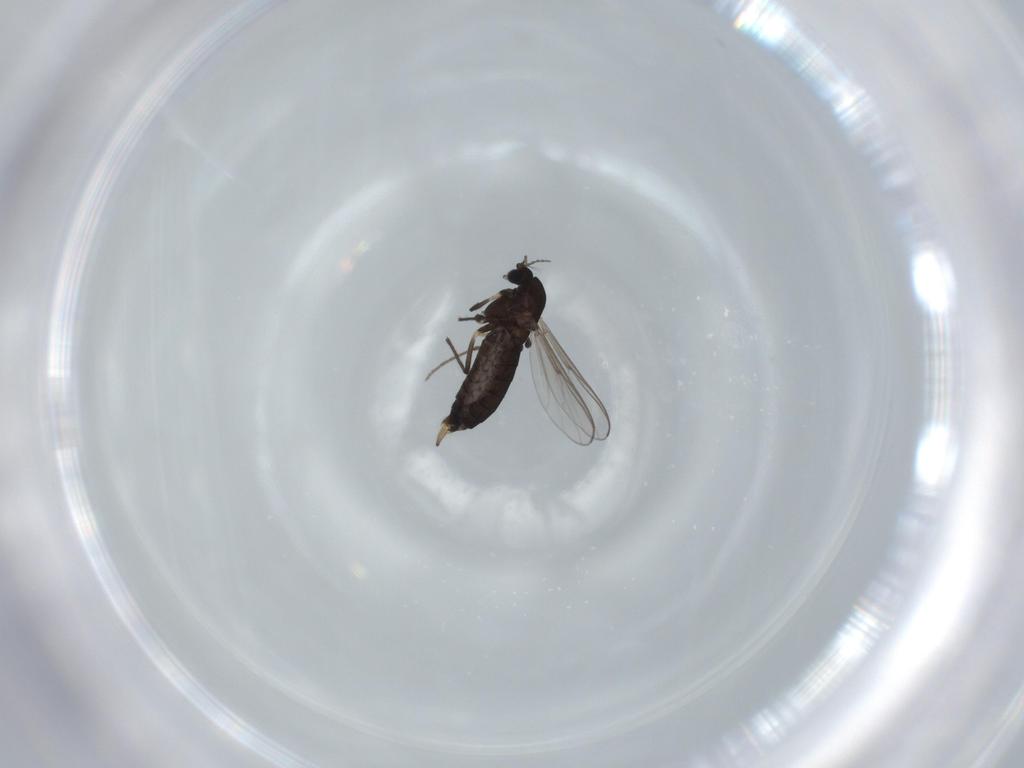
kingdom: Animalia
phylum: Arthropoda
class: Insecta
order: Diptera
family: Chironomidae
